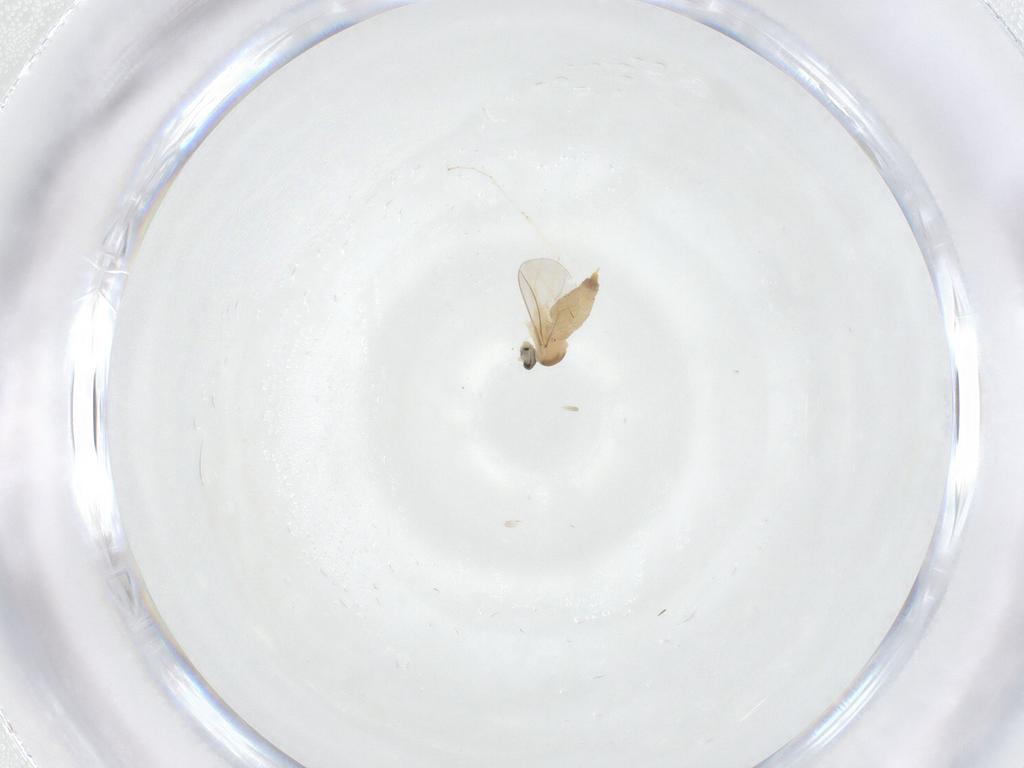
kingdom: Animalia
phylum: Arthropoda
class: Insecta
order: Diptera
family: Cecidomyiidae
